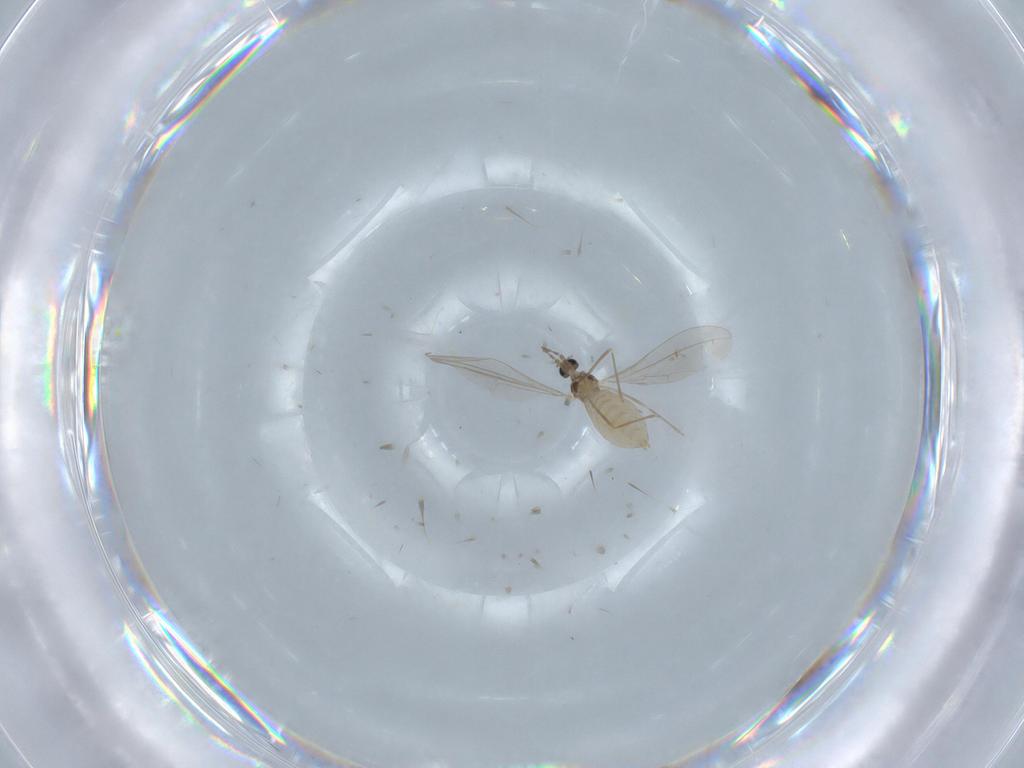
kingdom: Animalia
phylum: Arthropoda
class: Insecta
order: Diptera
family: Cecidomyiidae
